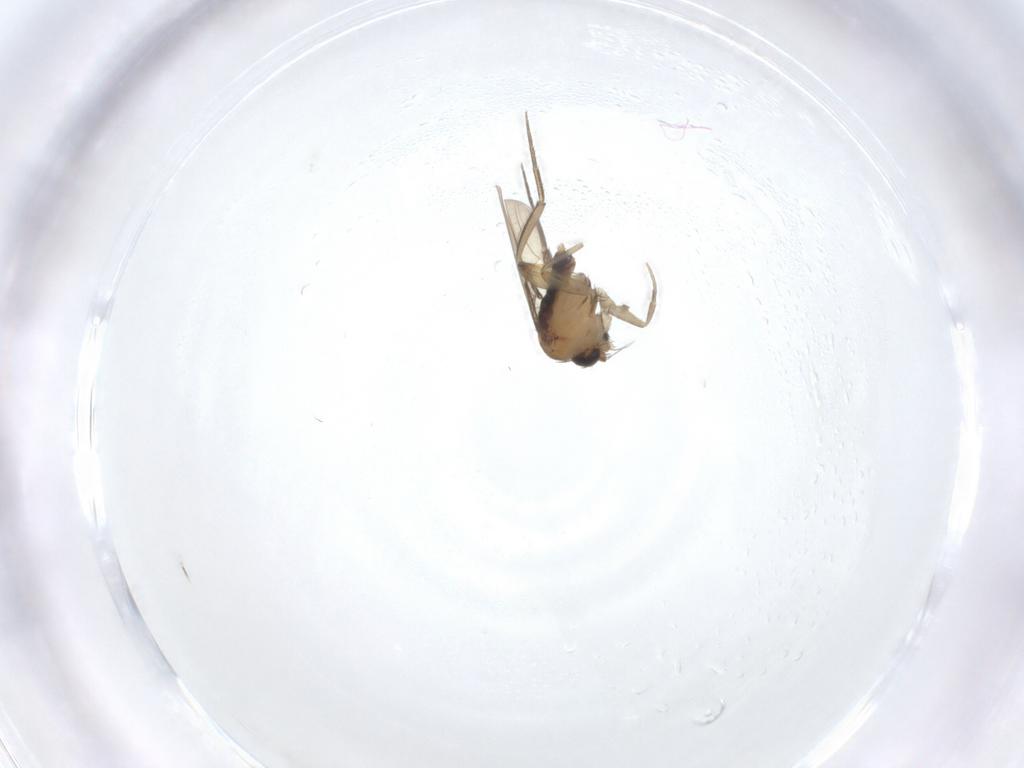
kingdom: Animalia
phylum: Arthropoda
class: Insecta
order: Diptera
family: Phoridae
